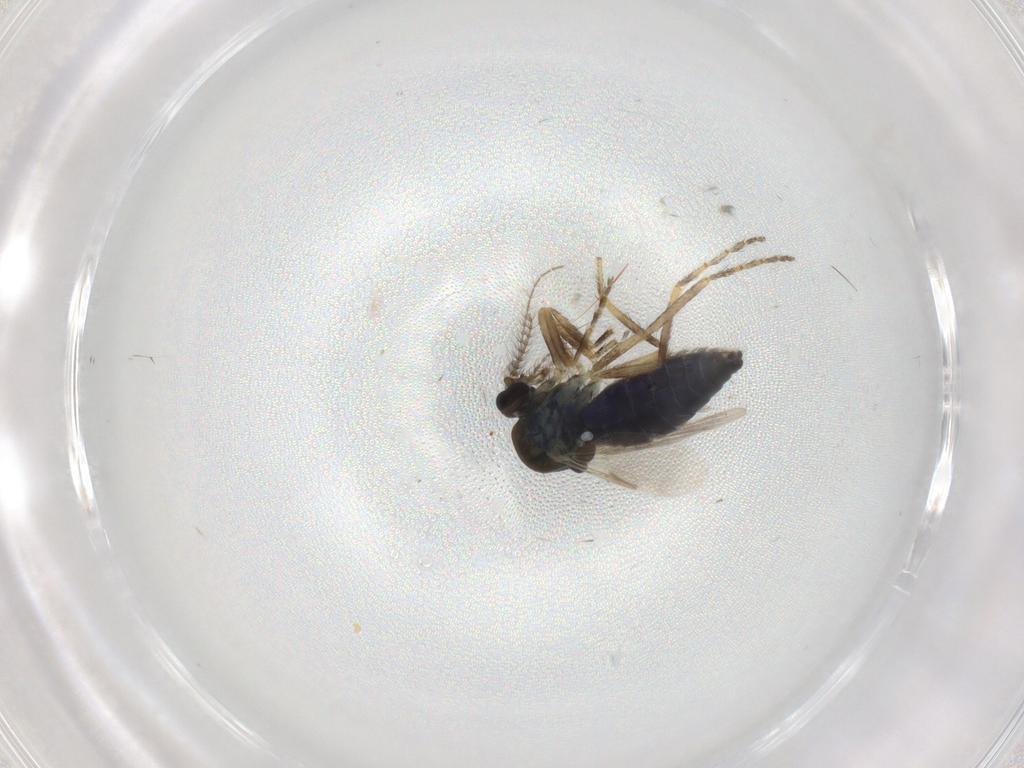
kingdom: Animalia
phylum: Arthropoda
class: Insecta
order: Diptera
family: Ceratopogonidae
